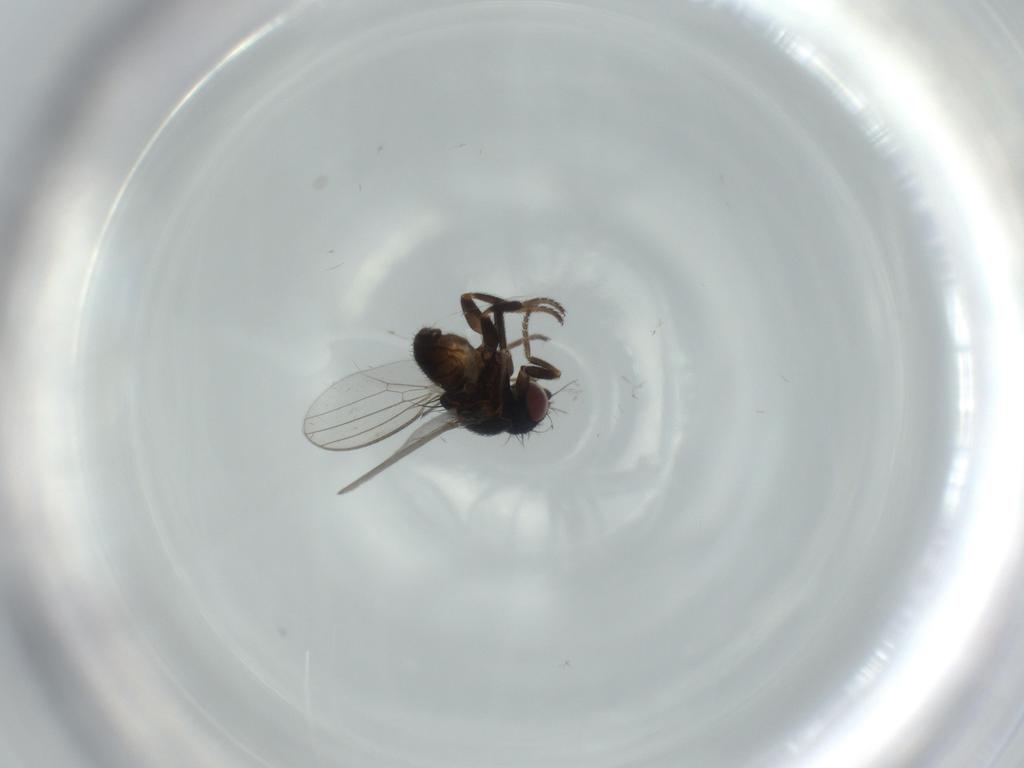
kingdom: Animalia
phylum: Arthropoda
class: Insecta
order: Diptera
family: Milichiidae
